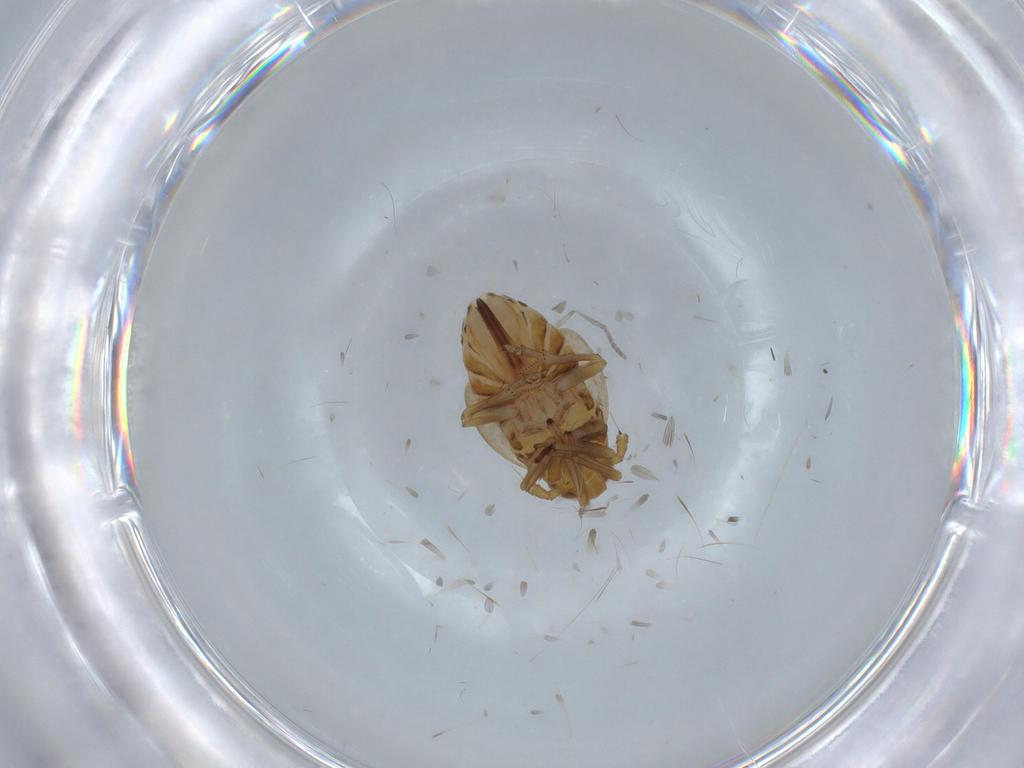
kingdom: Animalia
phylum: Arthropoda
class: Insecta
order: Hemiptera
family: Delphacidae
